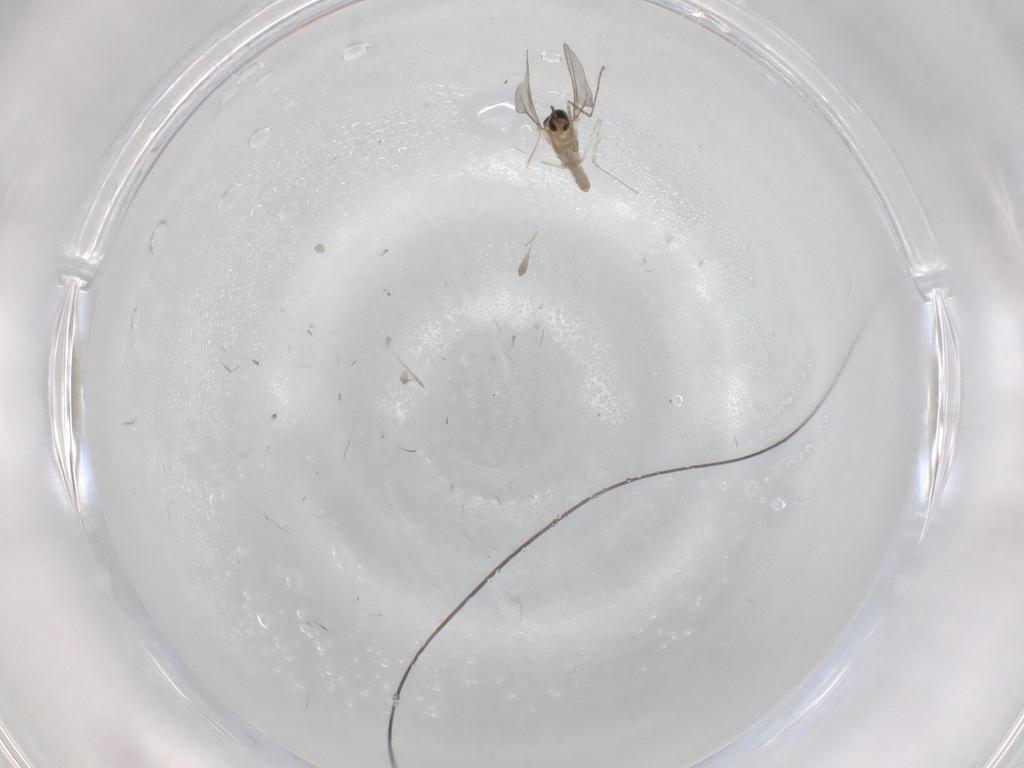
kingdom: Animalia
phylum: Arthropoda
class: Insecta
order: Diptera
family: Cecidomyiidae
